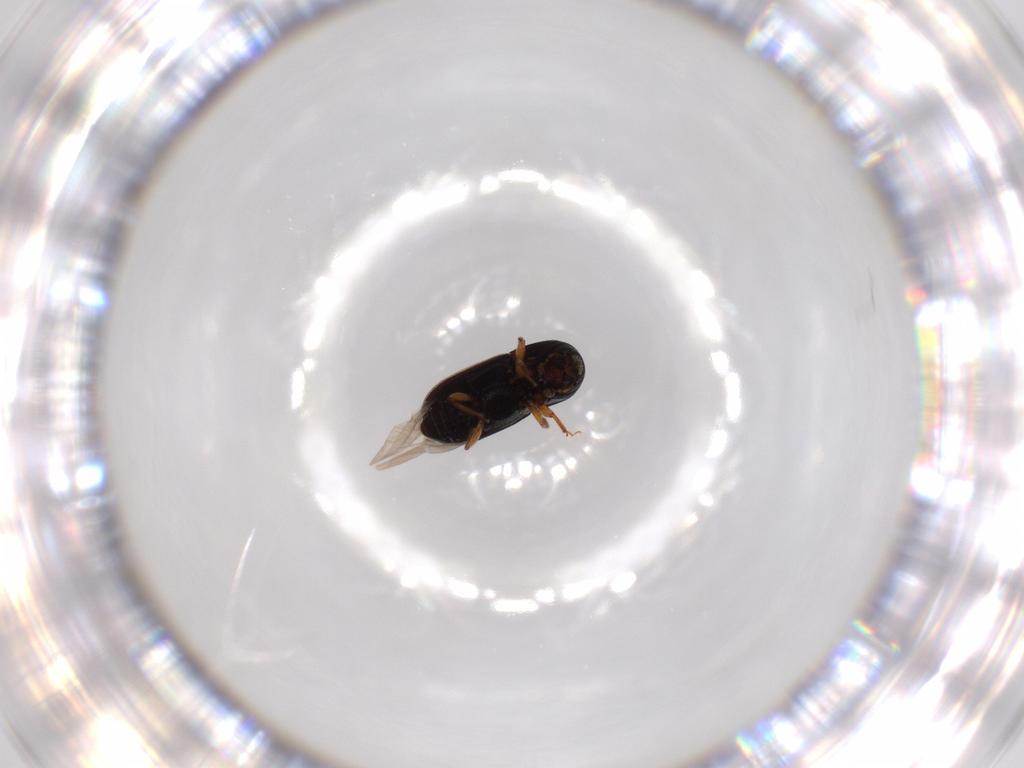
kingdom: Animalia
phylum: Arthropoda
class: Insecta
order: Coleoptera
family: Curculionidae
